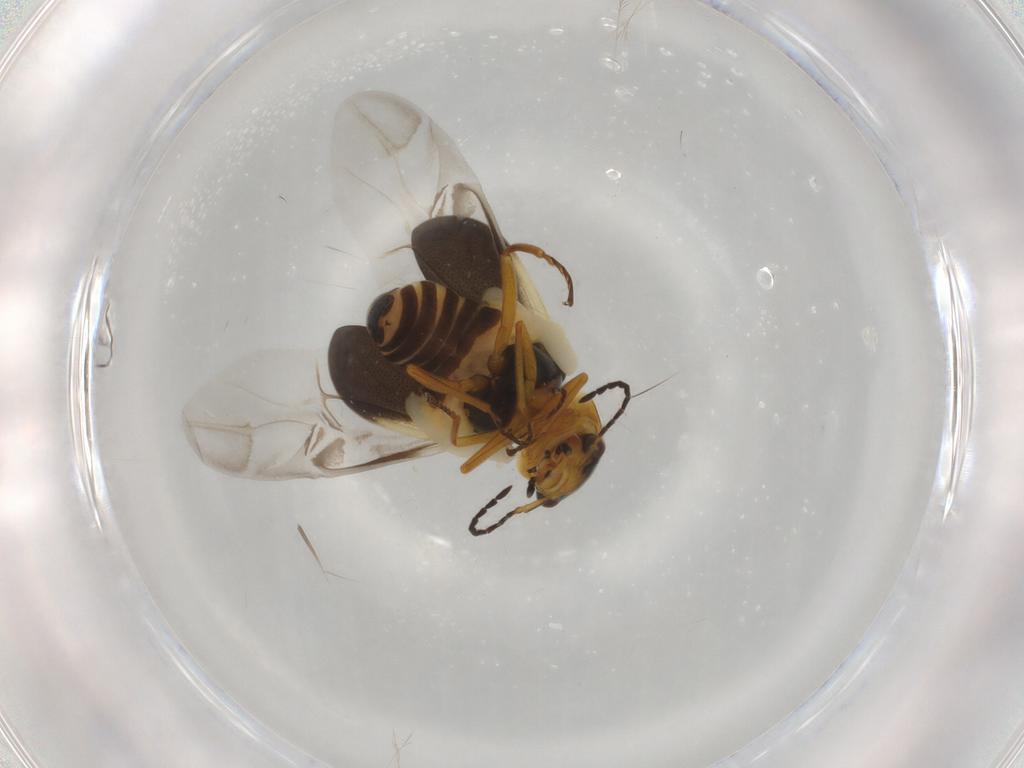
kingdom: Animalia
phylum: Arthropoda
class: Insecta
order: Coleoptera
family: Melyridae
